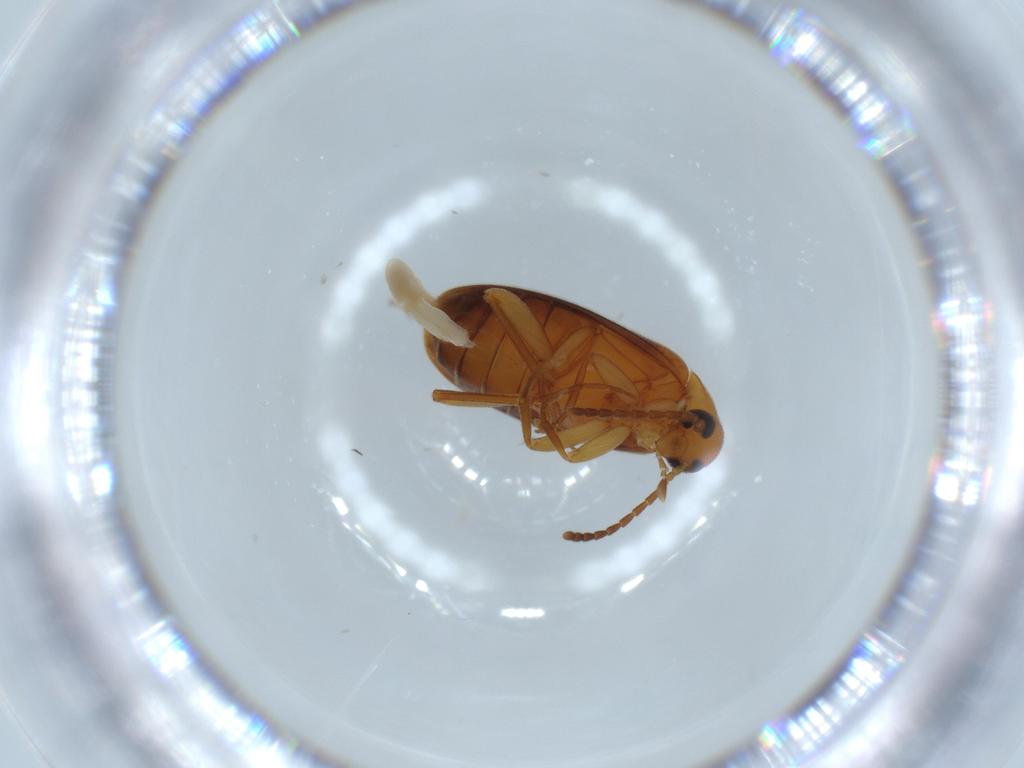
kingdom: Animalia
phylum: Arthropoda
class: Insecta
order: Coleoptera
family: Scraptiidae
